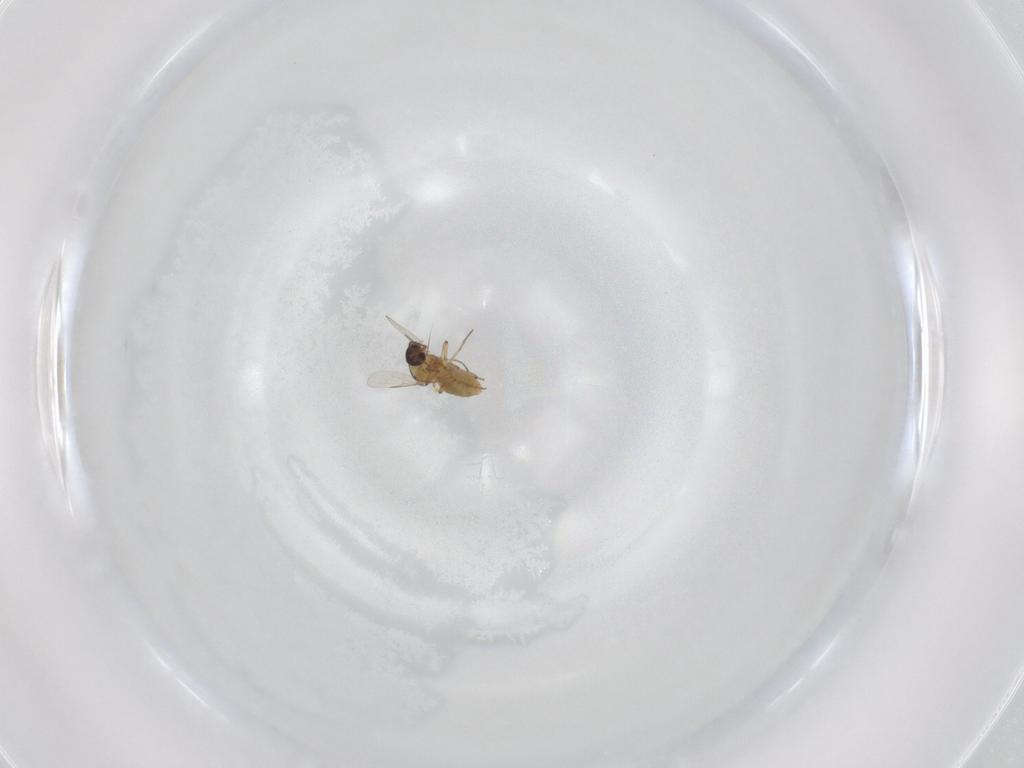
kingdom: Animalia
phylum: Arthropoda
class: Insecta
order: Diptera
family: Ceratopogonidae
